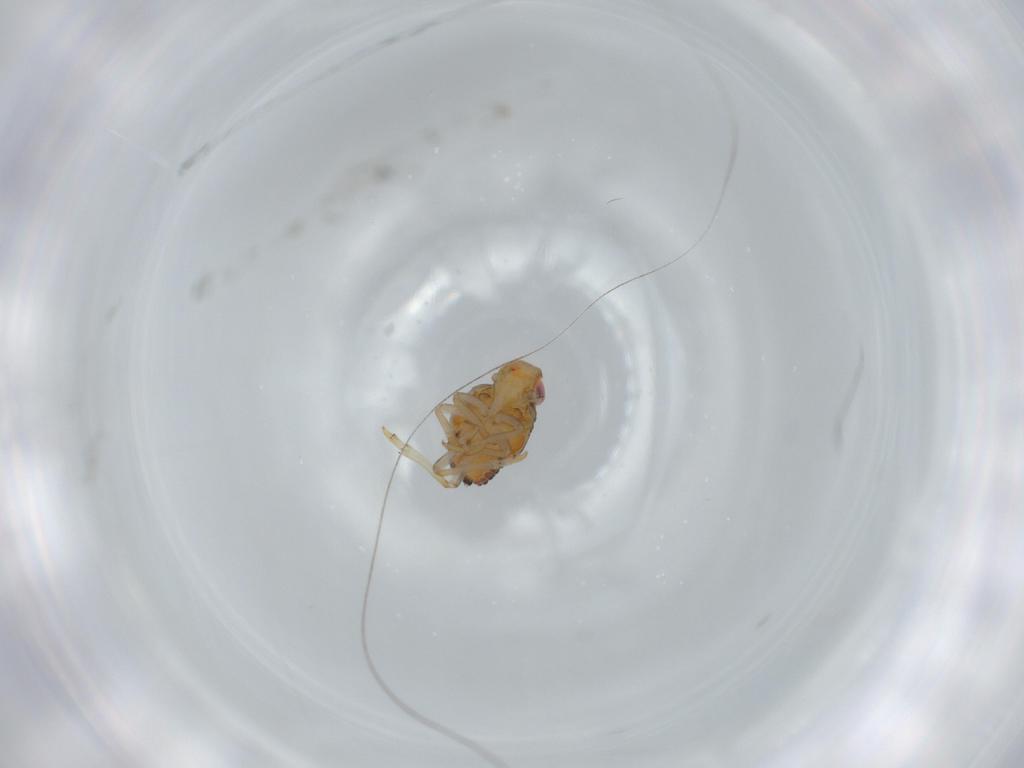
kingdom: Animalia
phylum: Arthropoda
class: Insecta
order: Hemiptera
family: Issidae
